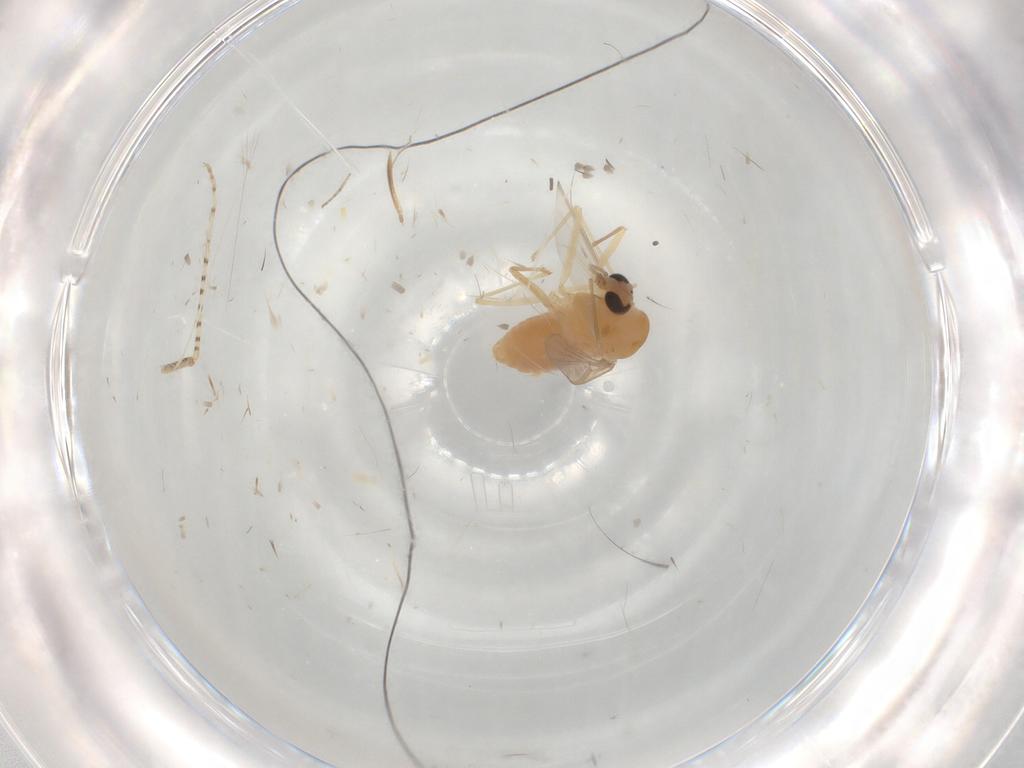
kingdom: Animalia
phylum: Arthropoda
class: Insecta
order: Diptera
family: Chironomidae
